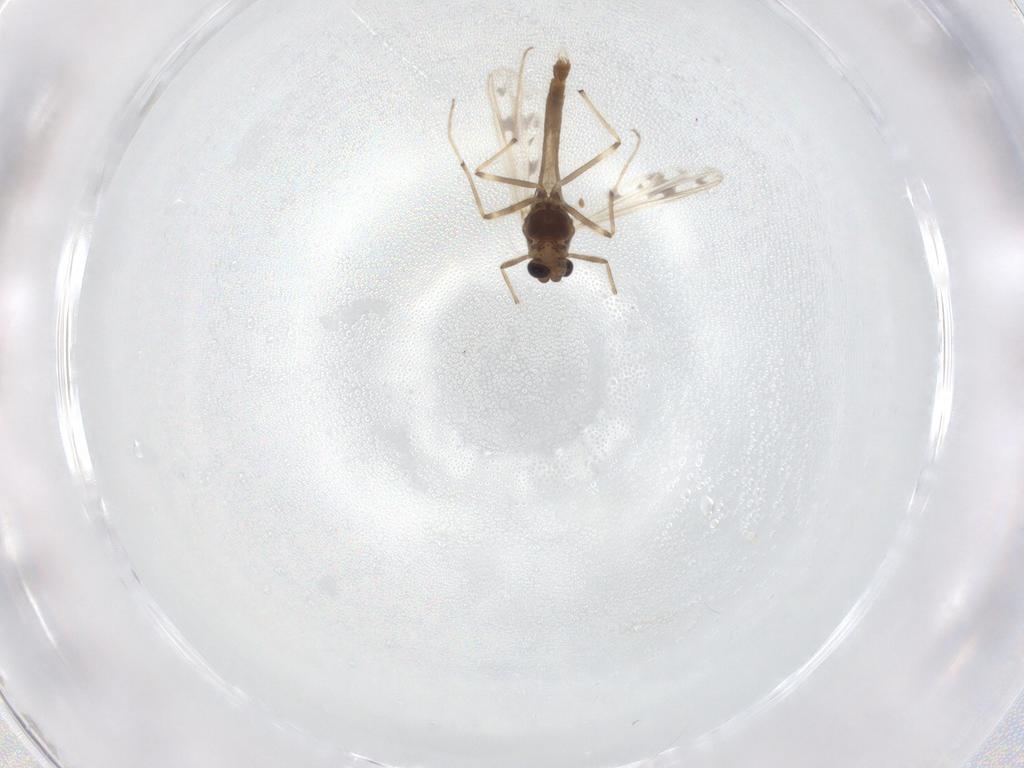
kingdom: Animalia
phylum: Arthropoda
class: Insecta
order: Diptera
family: Chironomidae
